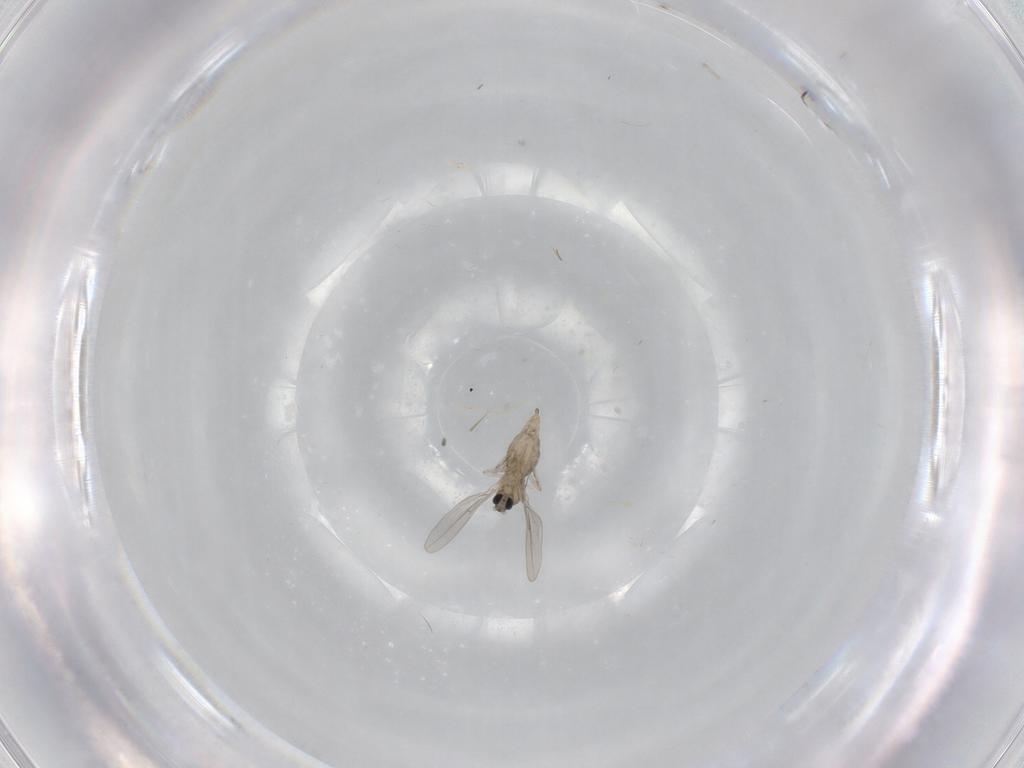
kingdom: Animalia
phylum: Arthropoda
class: Insecta
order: Diptera
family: Cecidomyiidae
